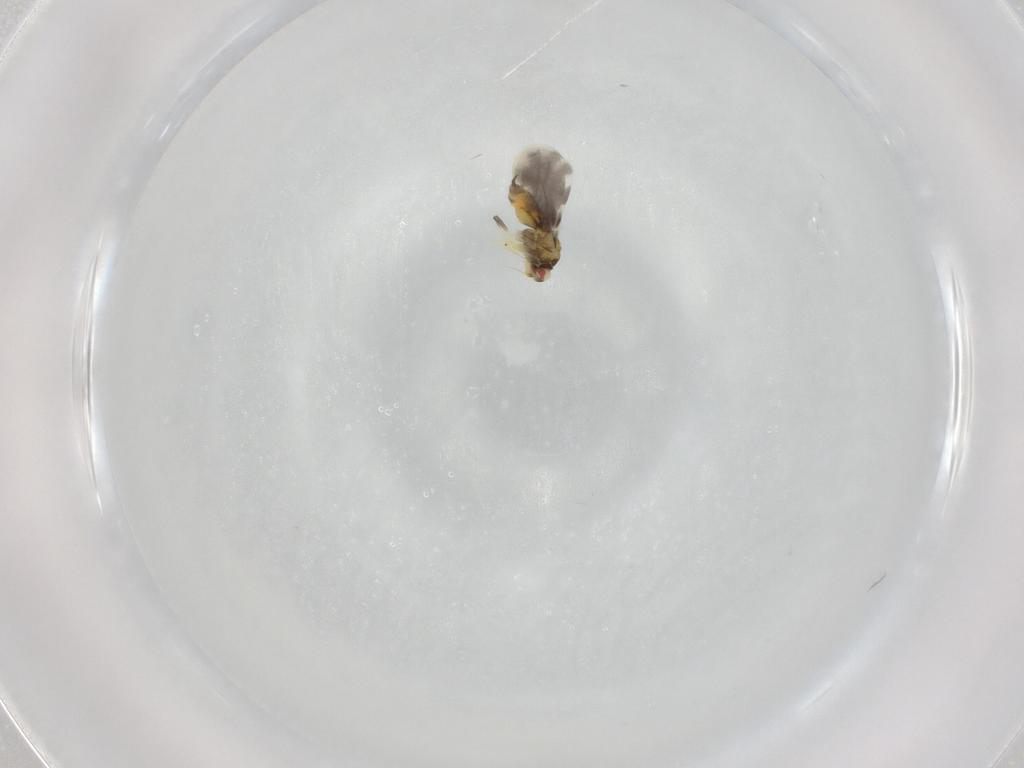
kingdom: Animalia
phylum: Arthropoda
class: Insecta
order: Hemiptera
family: Aleyrodidae
